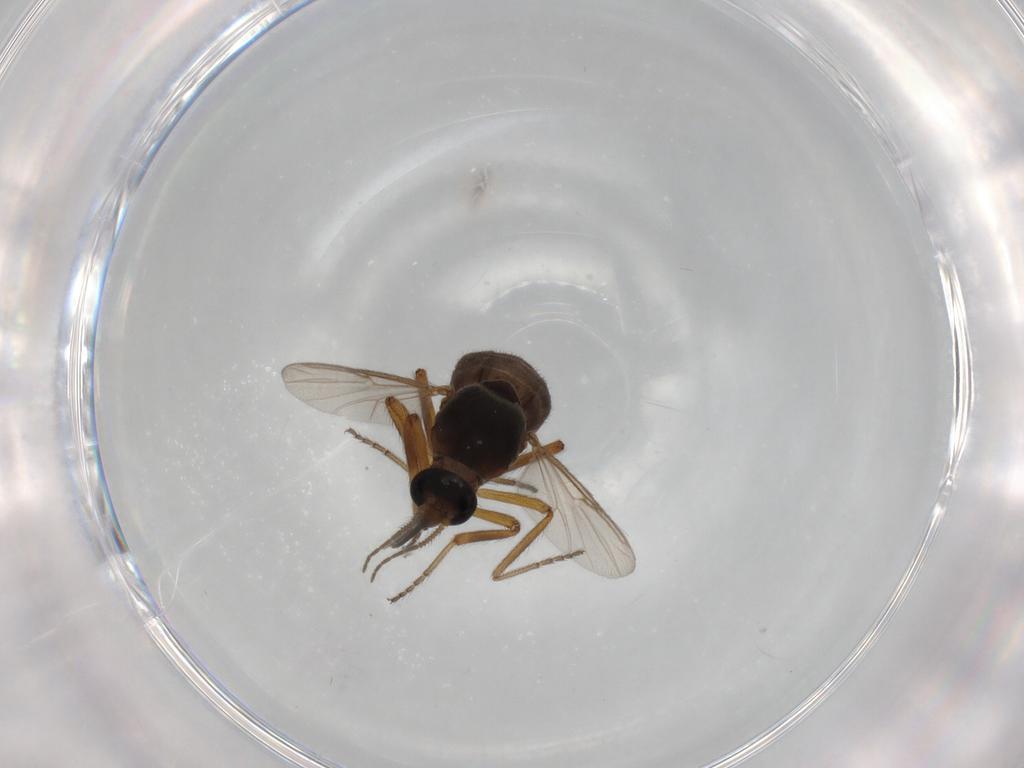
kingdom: Animalia
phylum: Arthropoda
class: Insecta
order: Diptera
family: Ceratopogonidae
